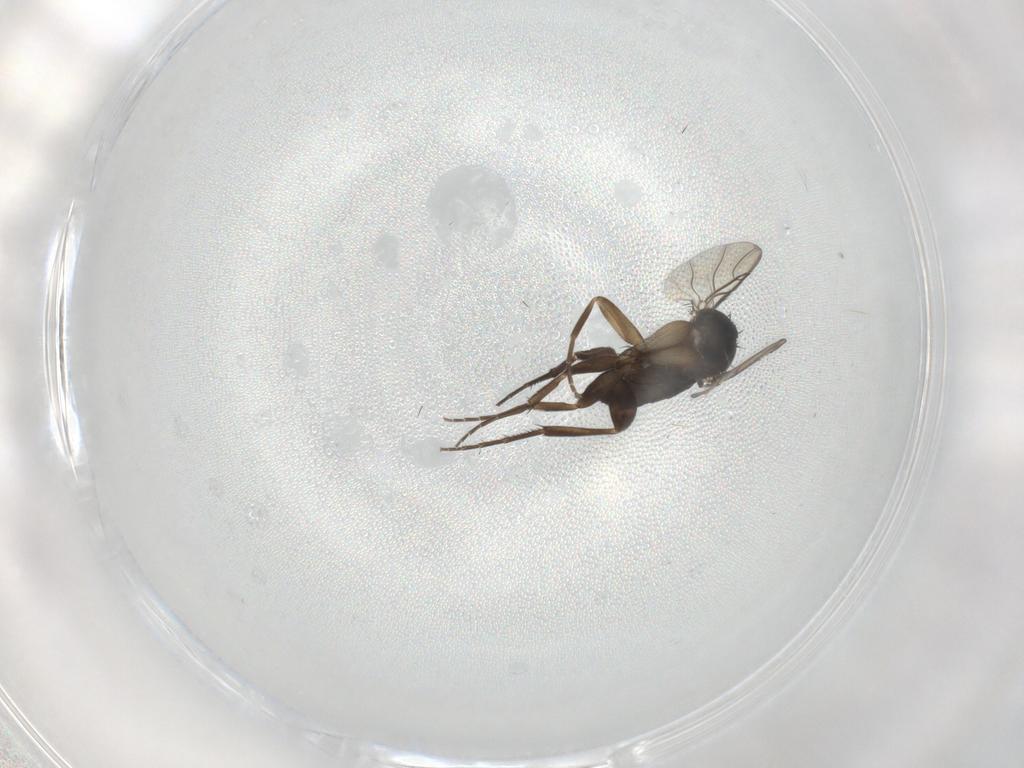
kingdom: Animalia
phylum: Arthropoda
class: Insecta
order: Diptera
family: Phoridae
